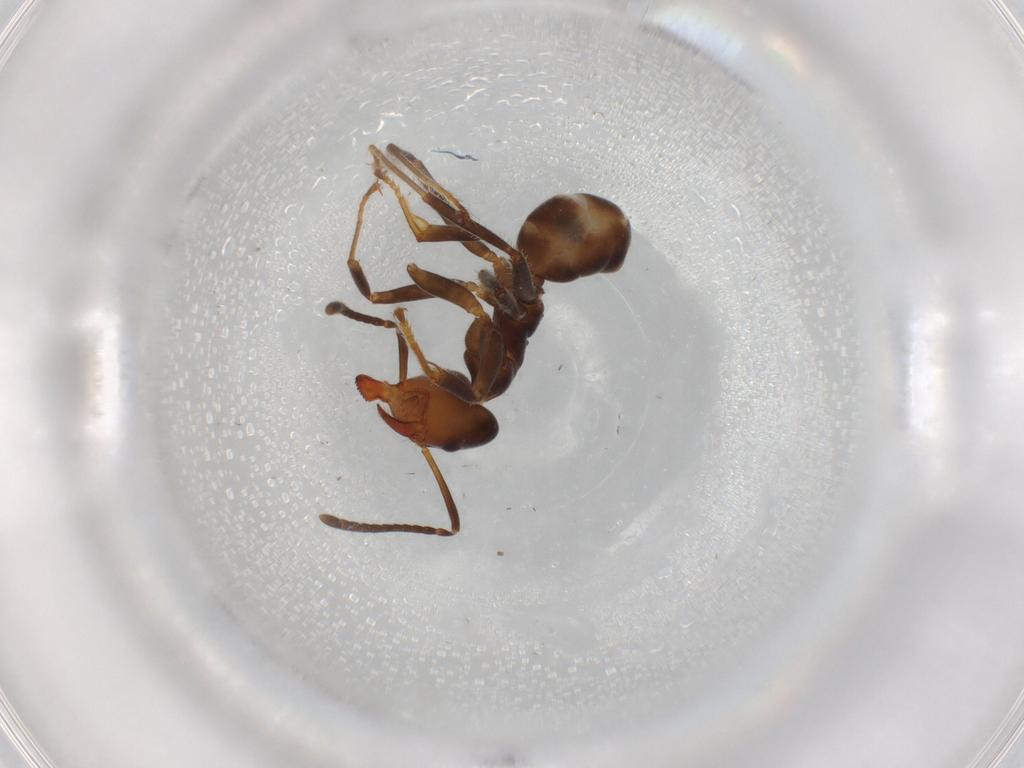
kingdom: Animalia
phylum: Arthropoda
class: Insecta
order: Hymenoptera
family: Formicidae
